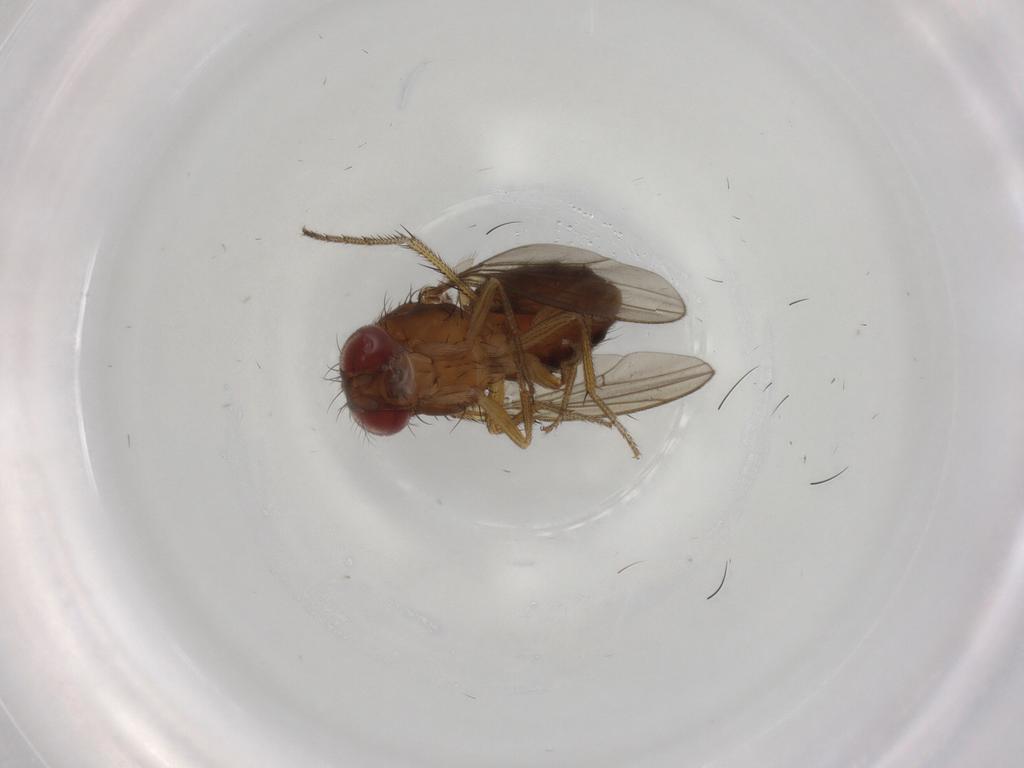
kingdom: Animalia
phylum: Arthropoda
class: Insecta
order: Diptera
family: Drosophilidae
